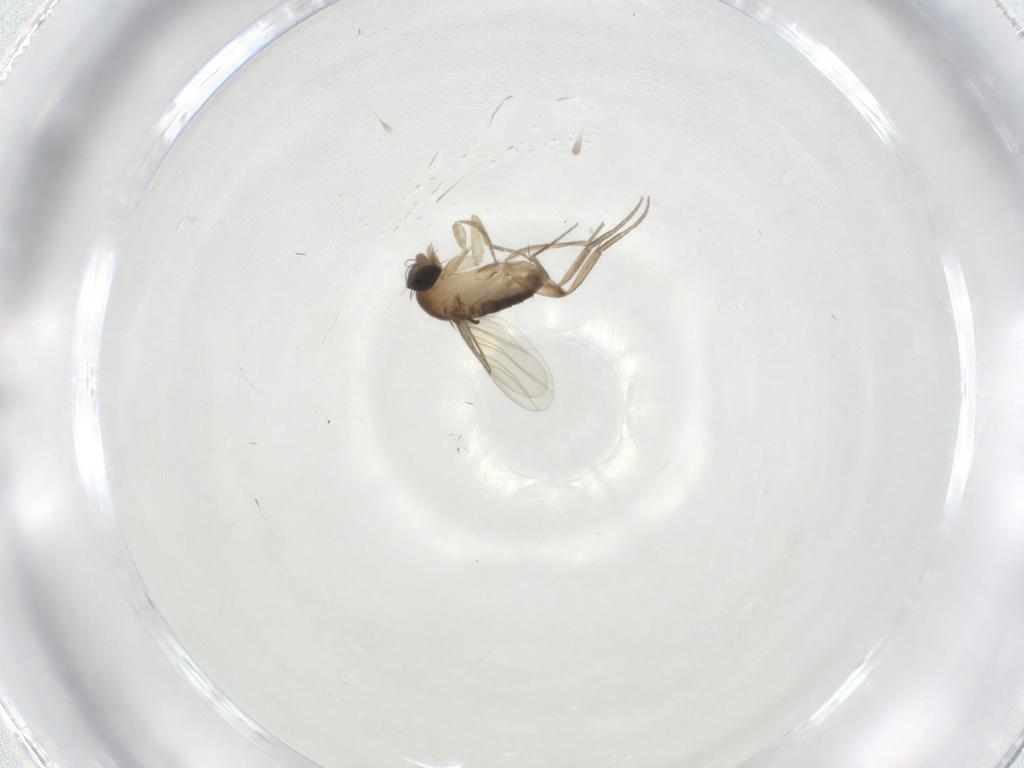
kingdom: Animalia
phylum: Arthropoda
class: Insecta
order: Diptera
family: Phoridae
